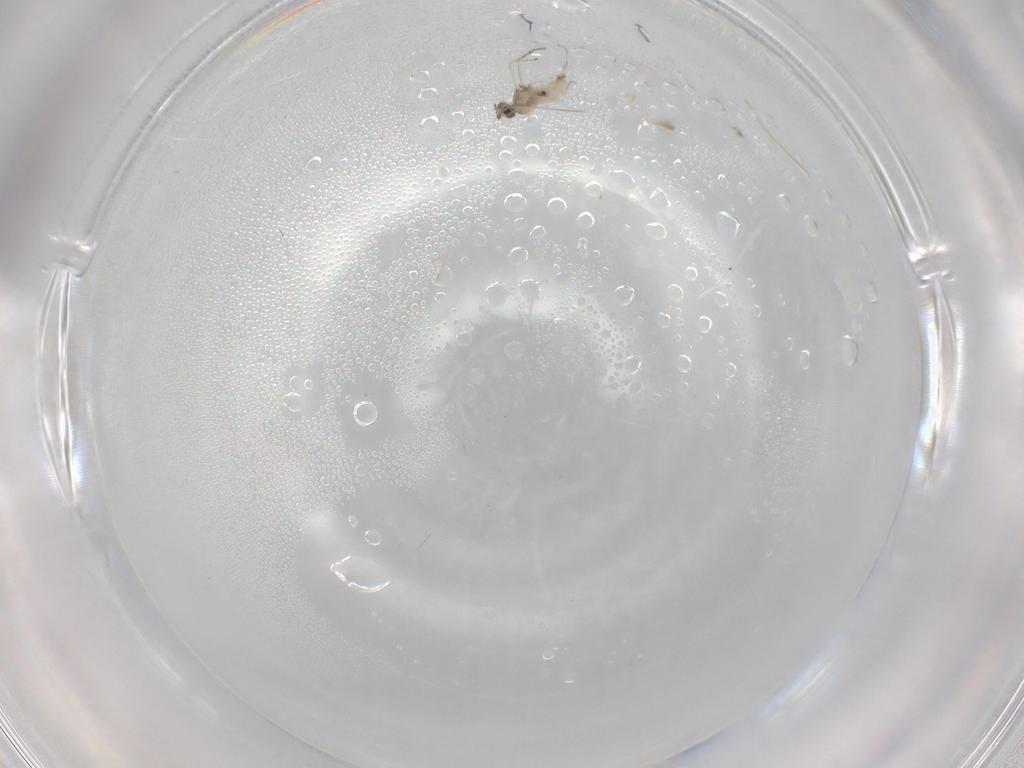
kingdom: Animalia
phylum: Arthropoda
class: Insecta
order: Diptera
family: Cecidomyiidae
